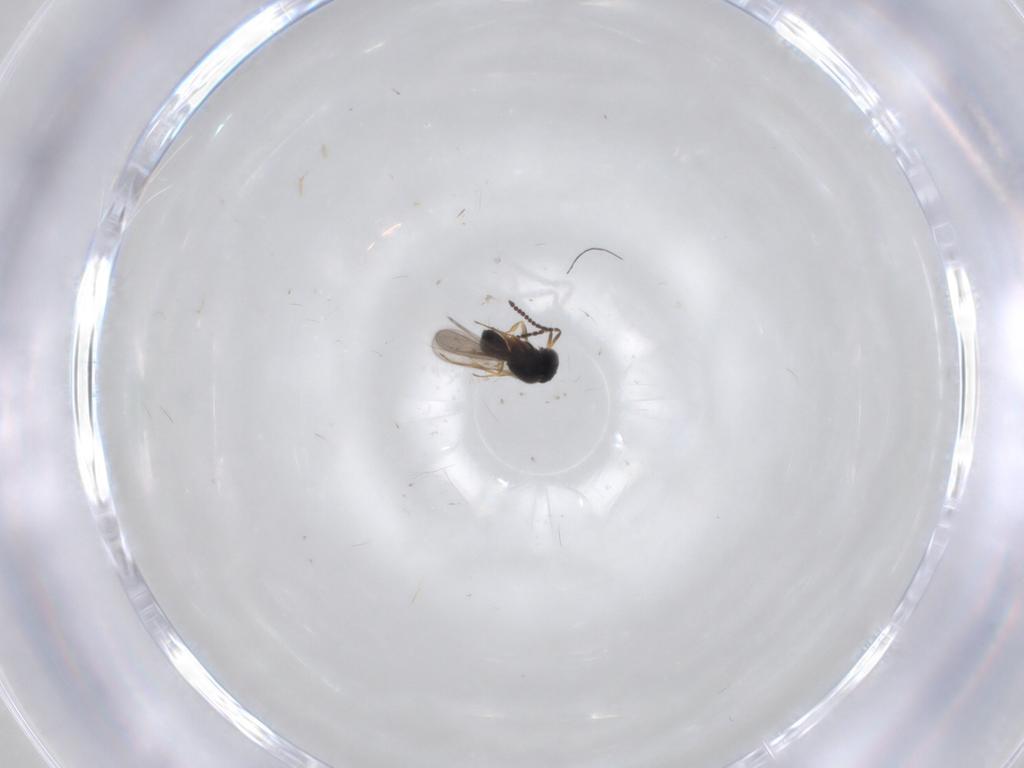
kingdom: Animalia
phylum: Arthropoda
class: Insecta
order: Hymenoptera
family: Scelionidae
